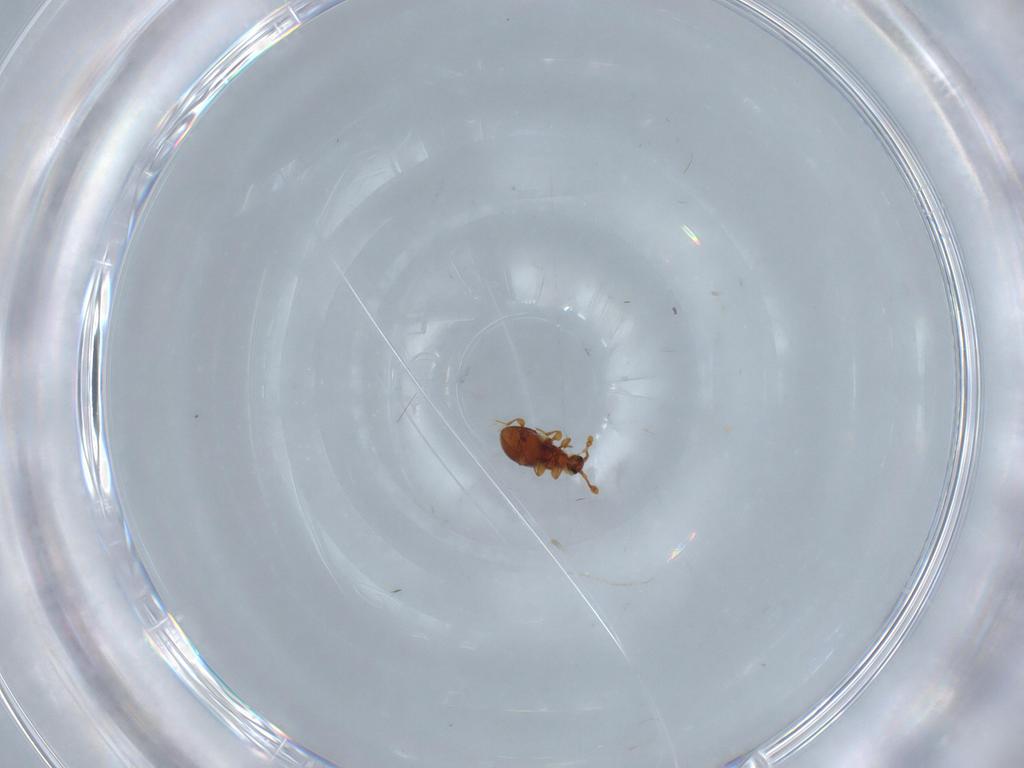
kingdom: Animalia
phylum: Arthropoda
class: Insecta
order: Coleoptera
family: Staphylinidae
